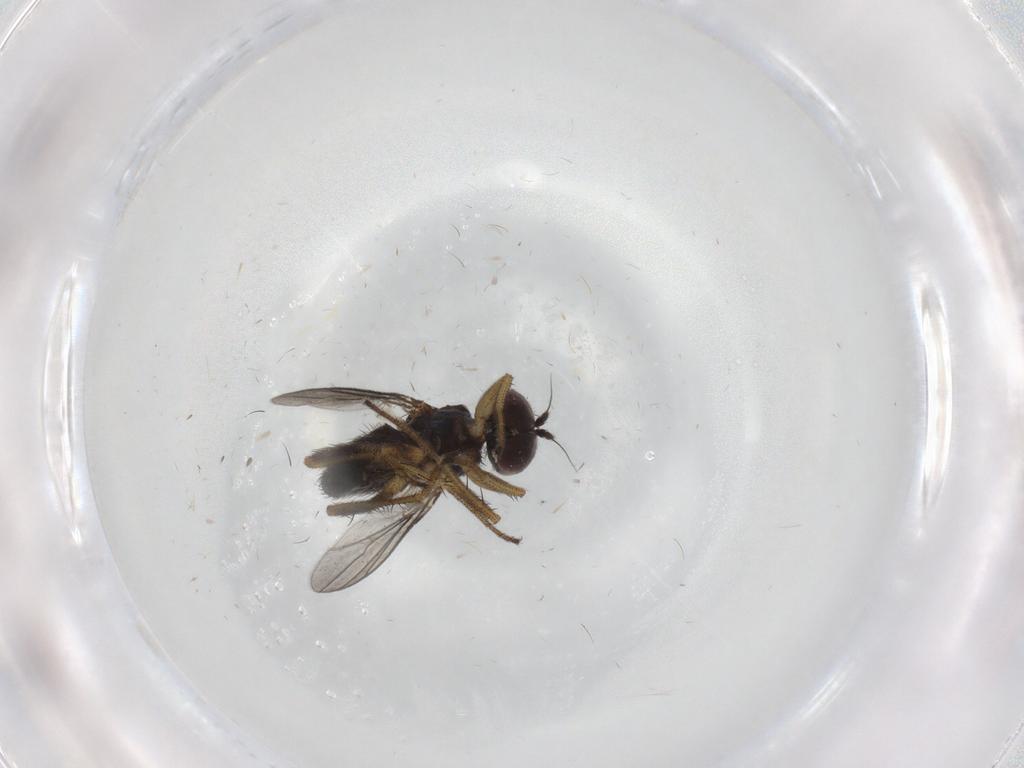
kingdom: Animalia
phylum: Arthropoda
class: Insecta
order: Diptera
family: Dolichopodidae
